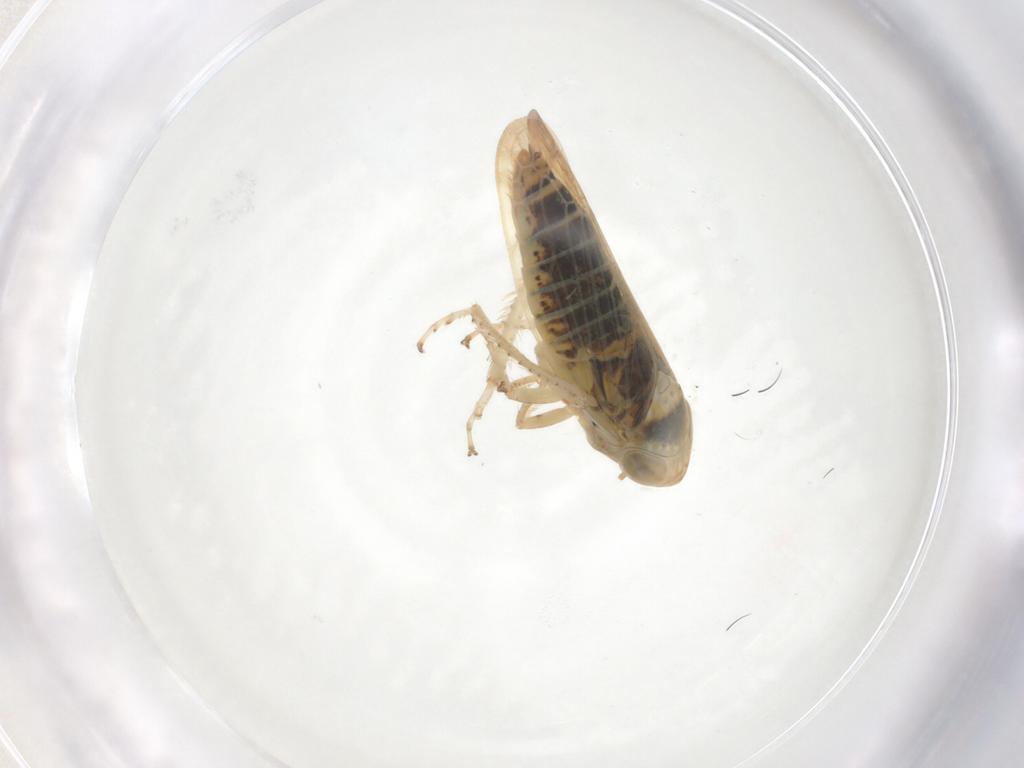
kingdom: Animalia
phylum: Arthropoda
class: Insecta
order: Hemiptera
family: Cicadellidae
